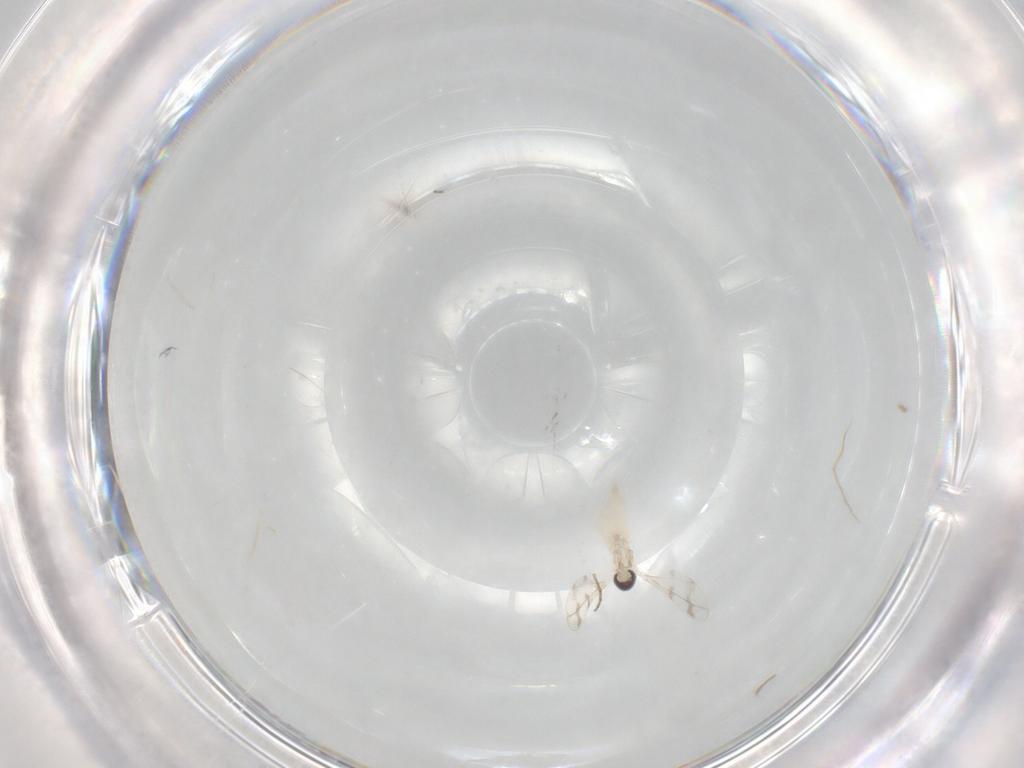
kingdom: Animalia
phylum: Arthropoda
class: Insecta
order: Diptera
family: Cecidomyiidae
